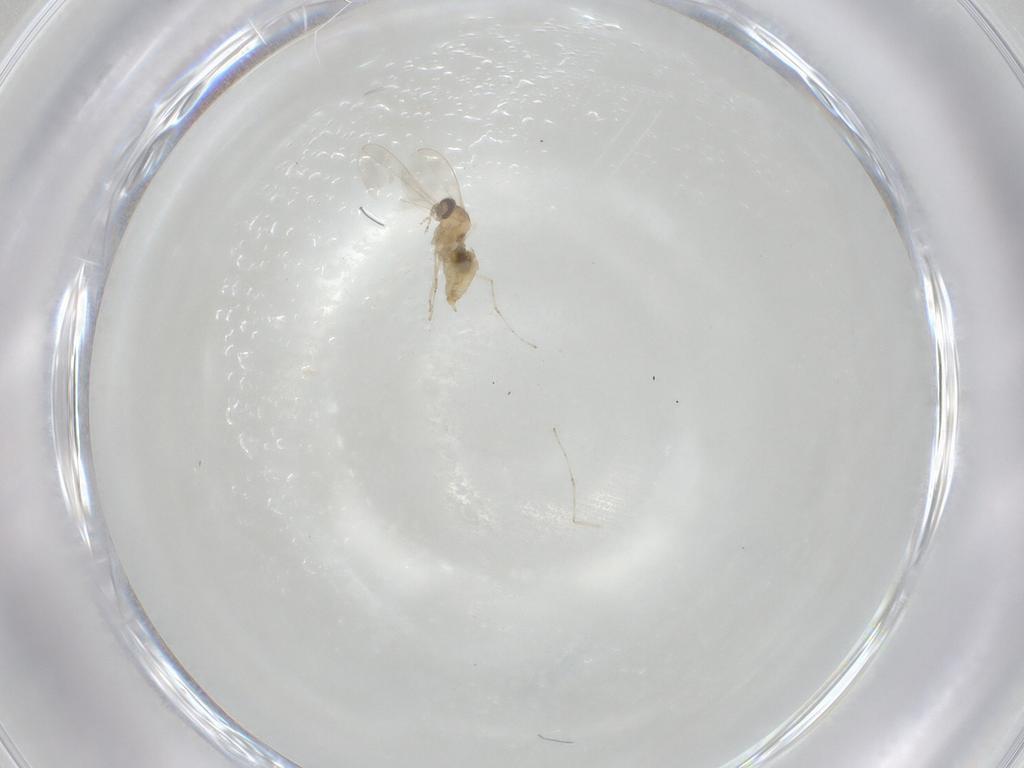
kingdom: Animalia
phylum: Arthropoda
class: Insecta
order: Diptera
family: Cecidomyiidae
